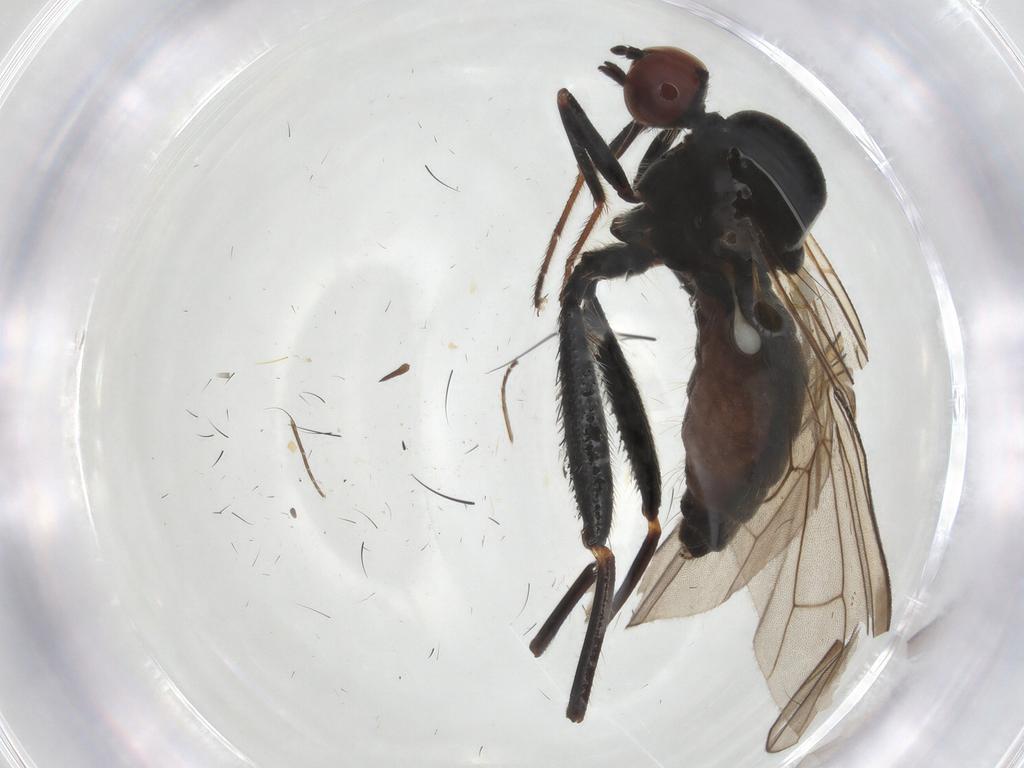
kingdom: Animalia
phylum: Arthropoda
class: Insecta
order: Diptera
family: Hybotidae
